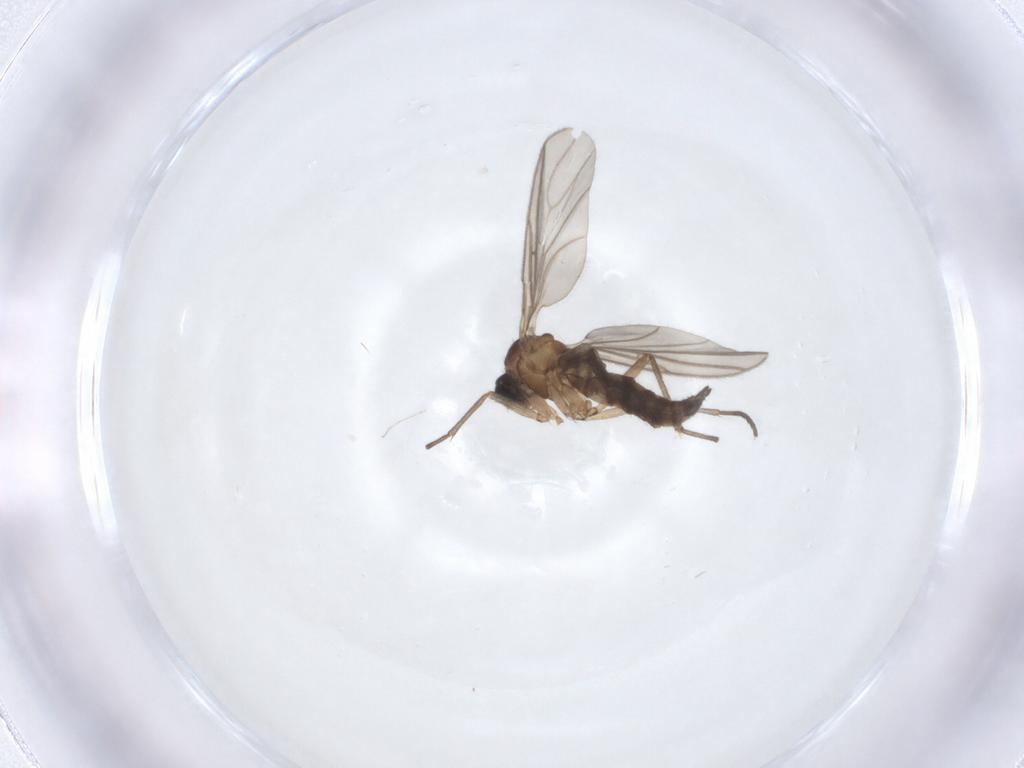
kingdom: Animalia
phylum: Arthropoda
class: Insecta
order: Diptera
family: Sciaridae
